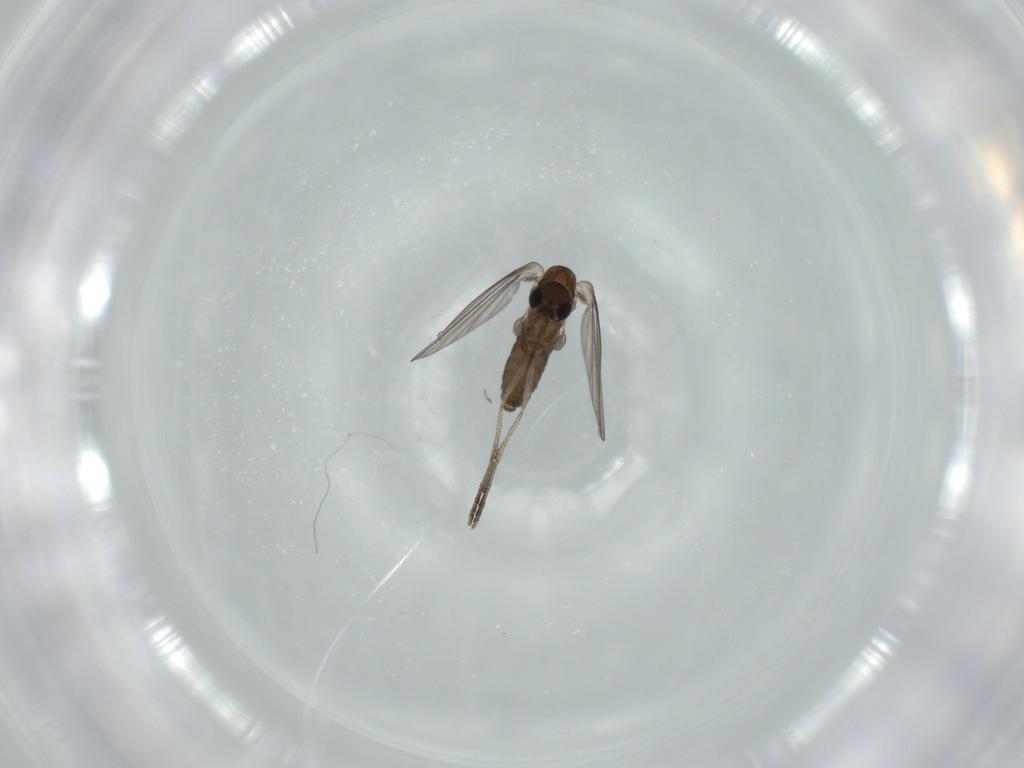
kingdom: Animalia
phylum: Arthropoda
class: Insecta
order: Diptera
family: Psychodidae
